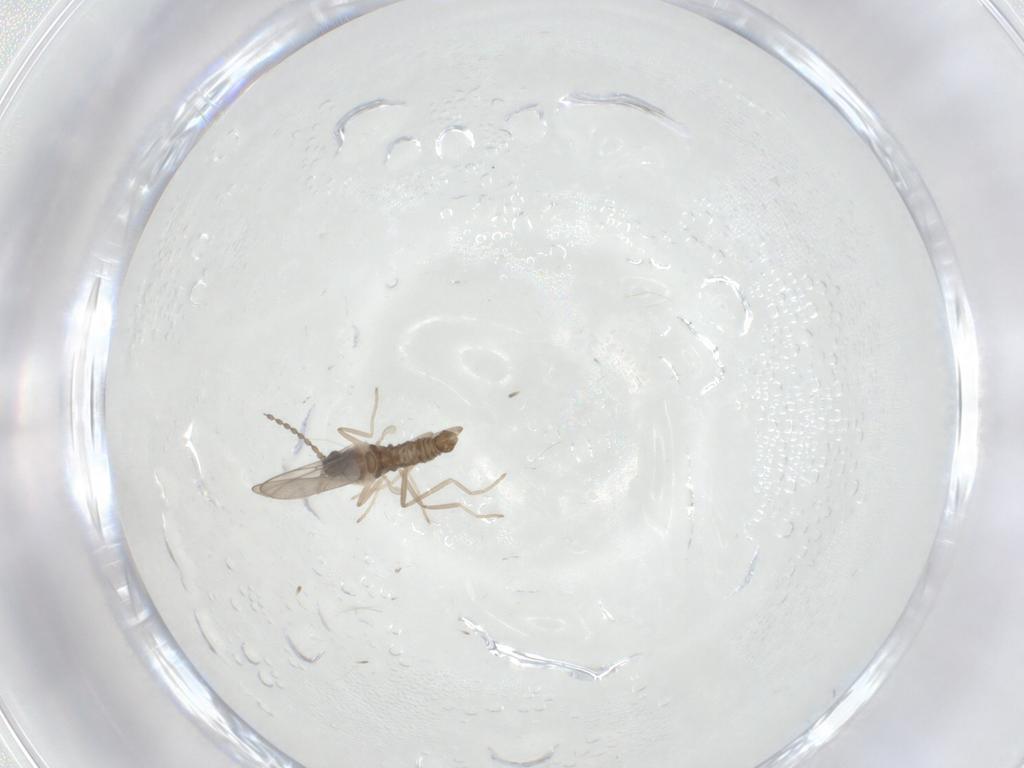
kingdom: Animalia
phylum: Arthropoda
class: Insecta
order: Diptera
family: Cecidomyiidae
